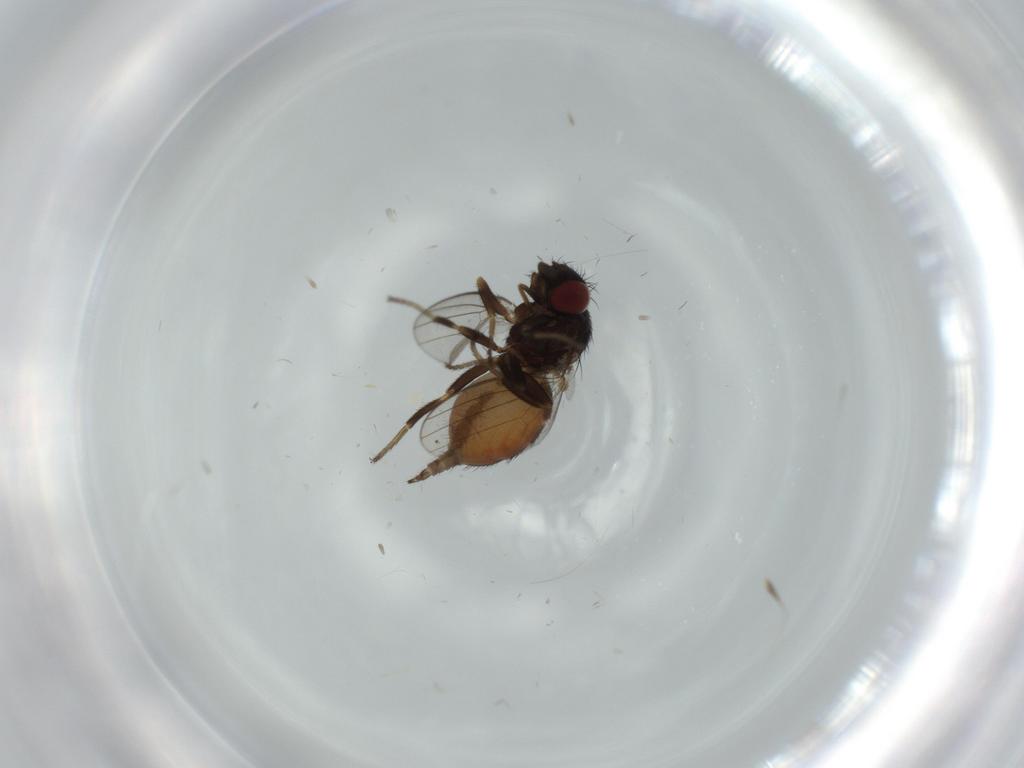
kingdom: Animalia
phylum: Arthropoda
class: Insecta
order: Diptera
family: Milichiidae
